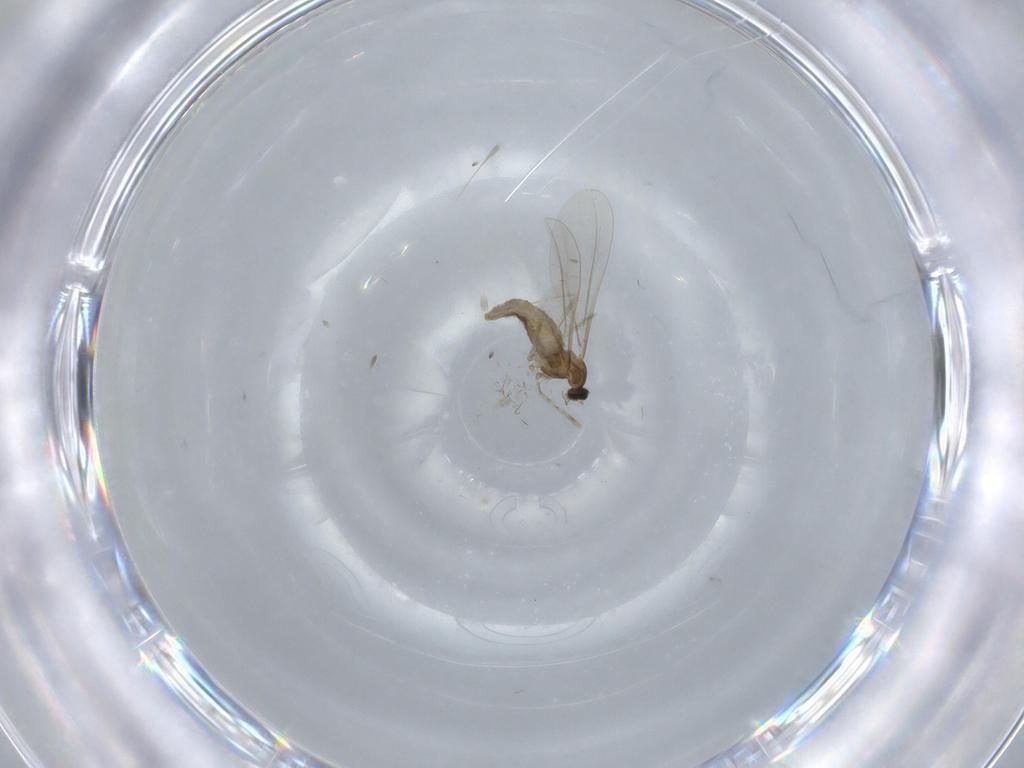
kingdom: Animalia
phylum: Arthropoda
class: Insecta
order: Diptera
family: Cecidomyiidae
